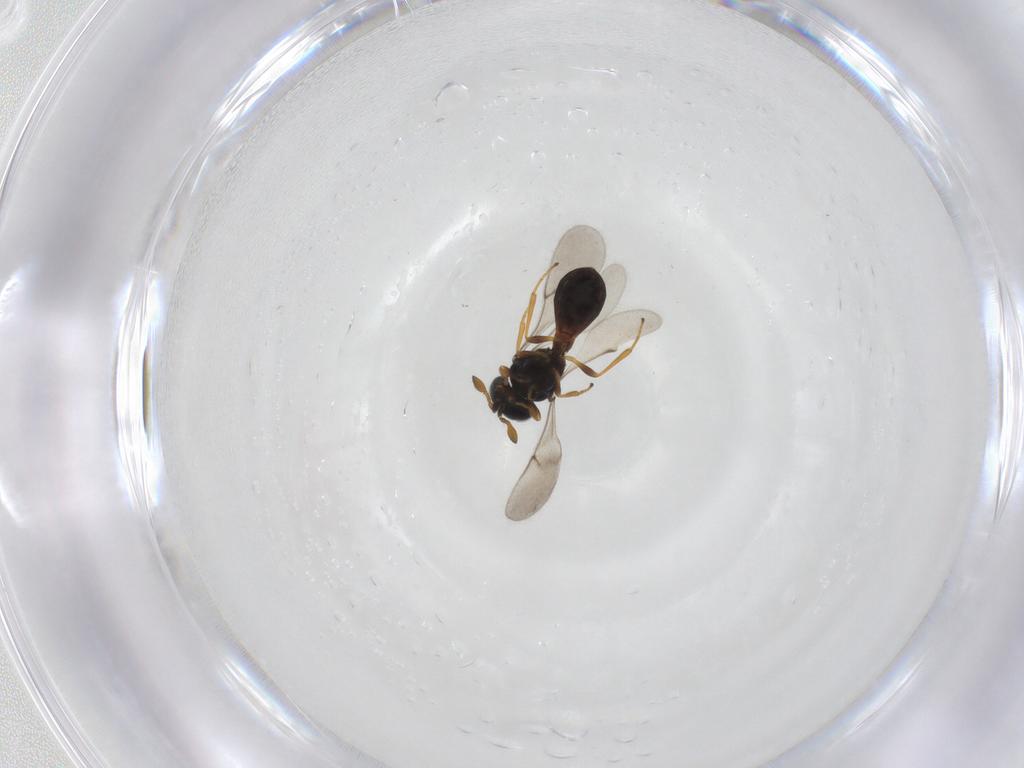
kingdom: Animalia
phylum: Arthropoda
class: Insecta
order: Hymenoptera
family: Scelionidae
